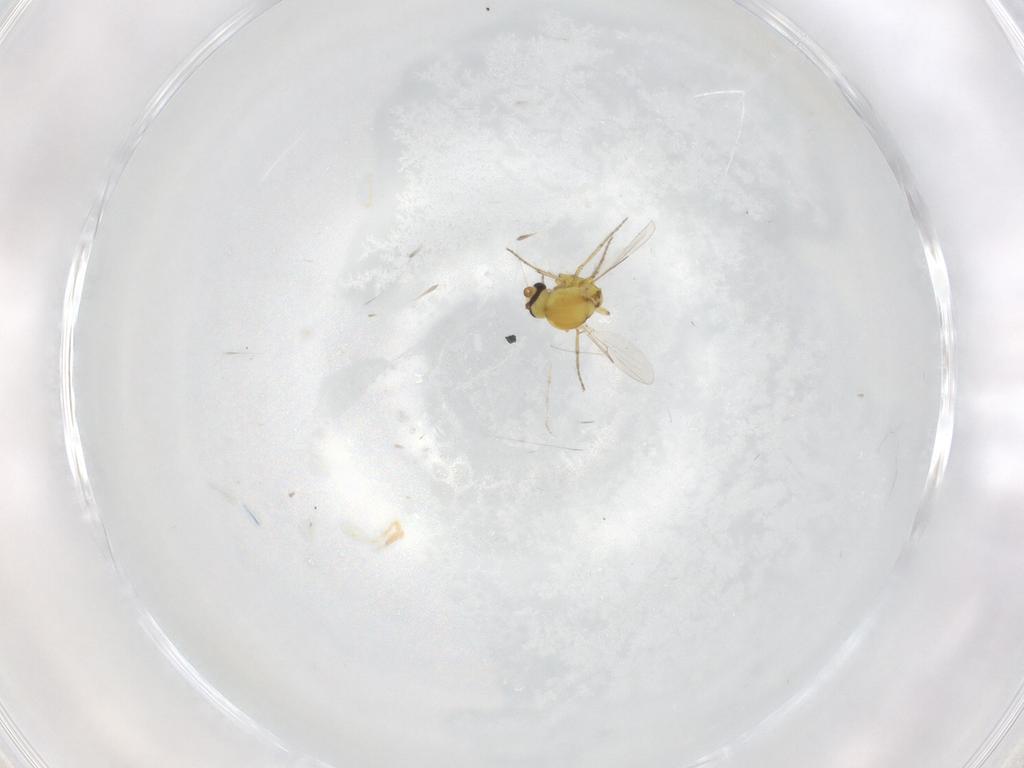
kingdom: Animalia
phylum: Arthropoda
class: Insecta
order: Diptera
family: Ceratopogonidae
